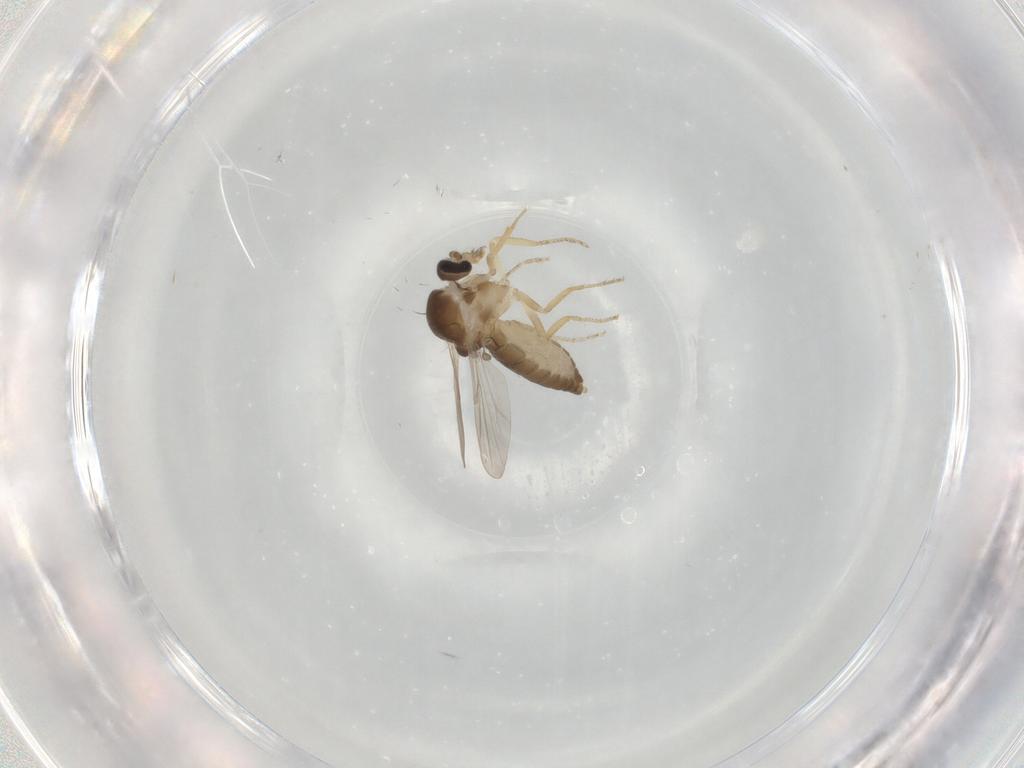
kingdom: Animalia
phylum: Arthropoda
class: Insecta
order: Diptera
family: Ceratopogonidae
